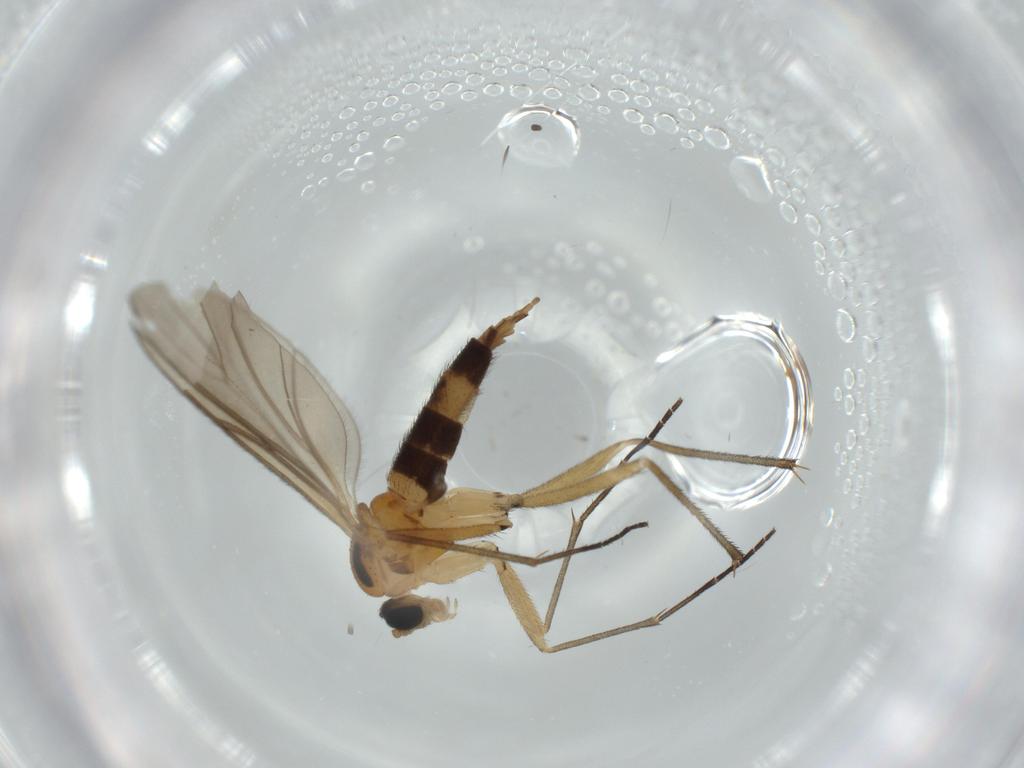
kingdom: Animalia
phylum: Arthropoda
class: Insecta
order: Diptera
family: Sciaridae
